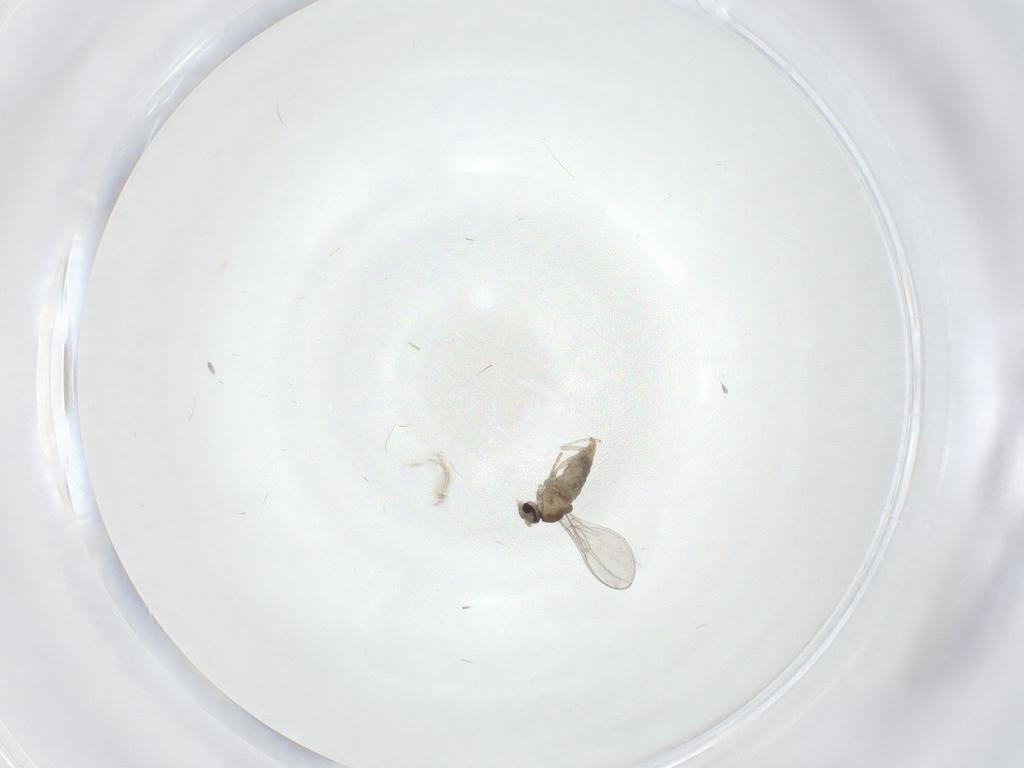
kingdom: Animalia
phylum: Arthropoda
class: Insecta
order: Diptera
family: Cecidomyiidae
